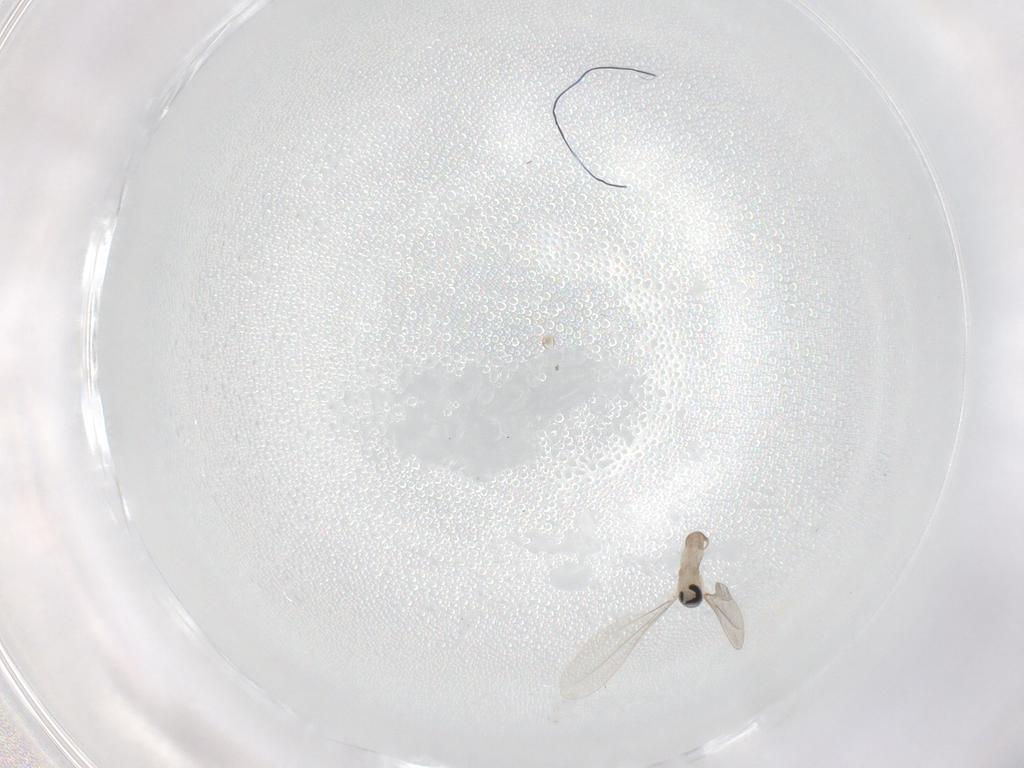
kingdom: Animalia
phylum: Arthropoda
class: Insecta
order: Diptera
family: Cecidomyiidae
